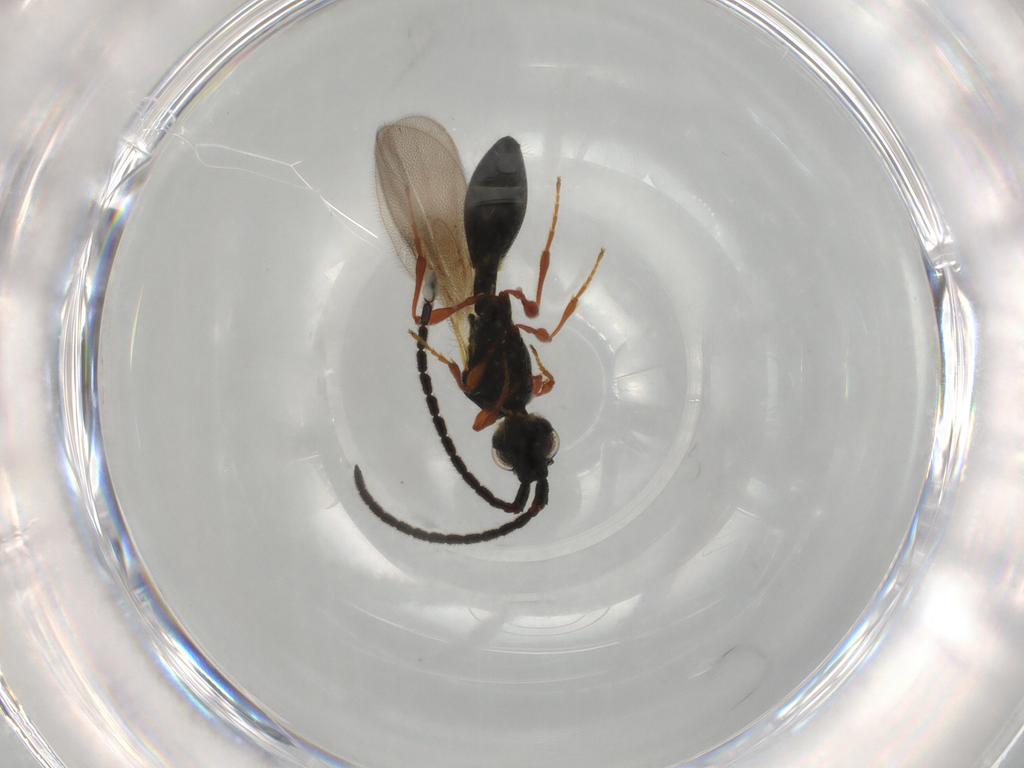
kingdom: Animalia
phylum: Arthropoda
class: Insecta
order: Hymenoptera
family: Diapriidae
